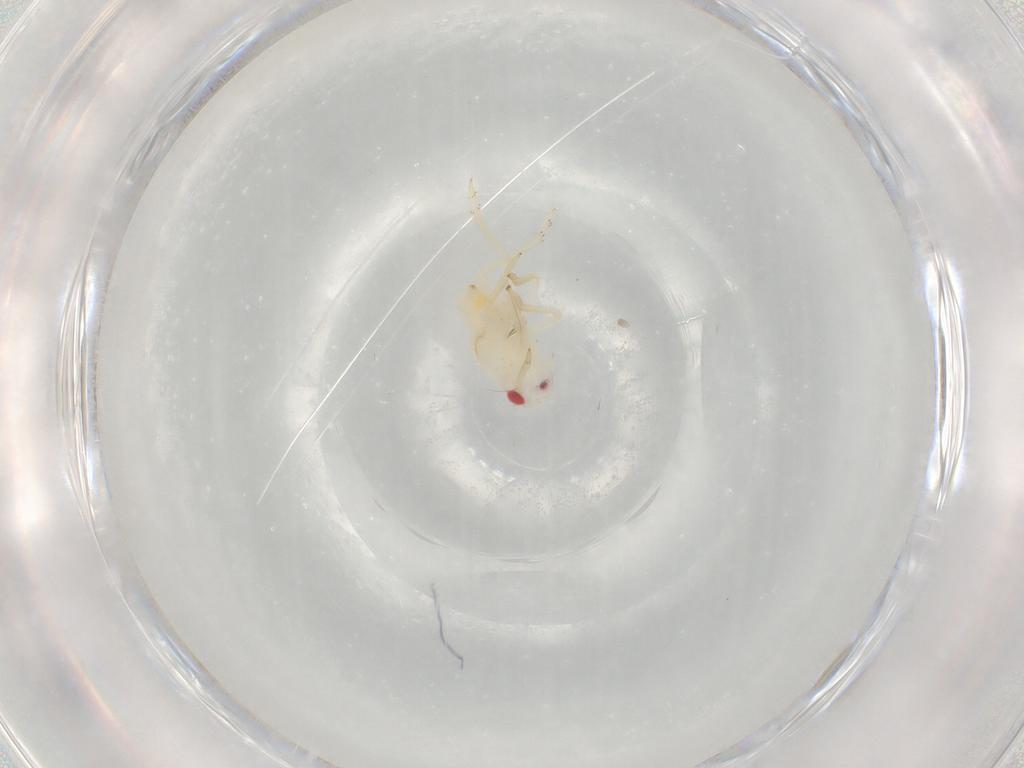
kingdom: Animalia
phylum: Arthropoda
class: Insecta
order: Hemiptera
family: Tropiduchidae
